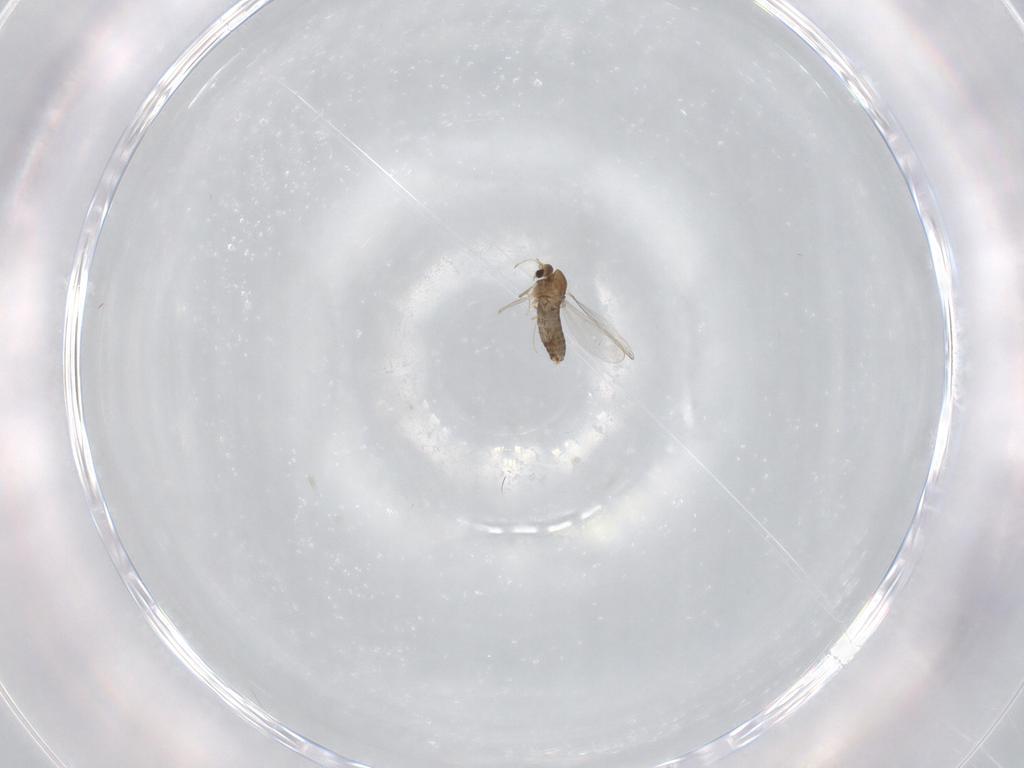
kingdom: Animalia
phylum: Arthropoda
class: Insecta
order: Diptera
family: Chironomidae
